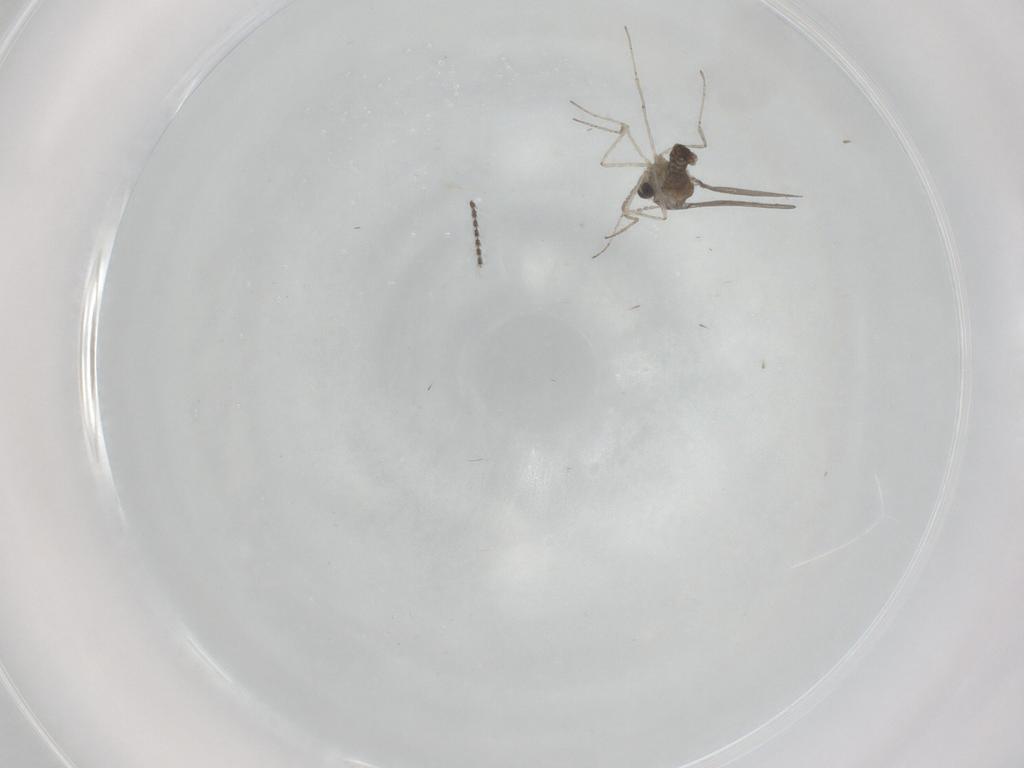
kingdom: Animalia
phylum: Arthropoda
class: Insecta
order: Diptera
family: Cecidomyiidae
